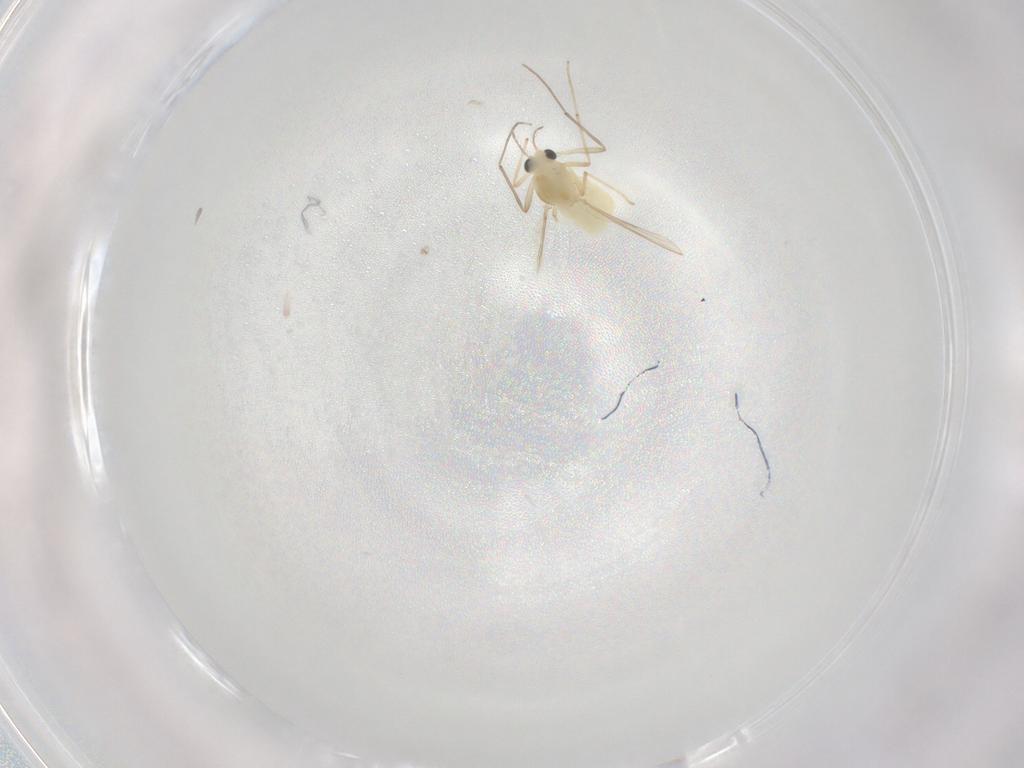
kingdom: Animalia
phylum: Arthropoda
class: Insecta
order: Diptera
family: Chironomidae
